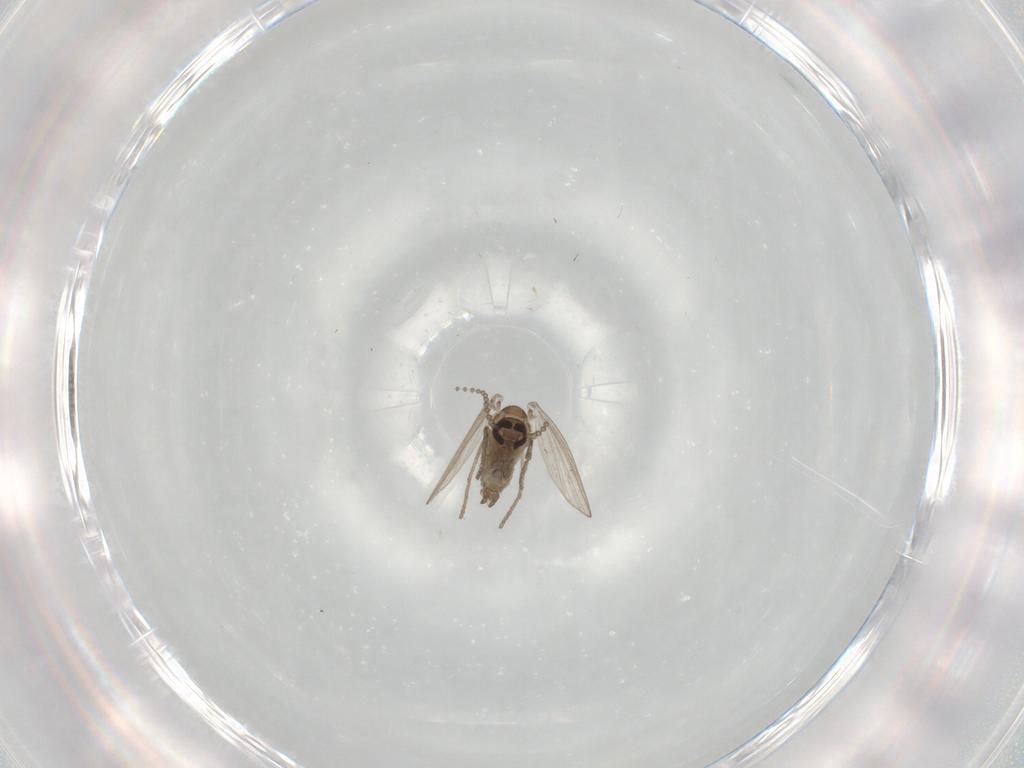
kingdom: Animalia
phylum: Arthropoda
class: Insecta
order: Diptera
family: Psychodidae
